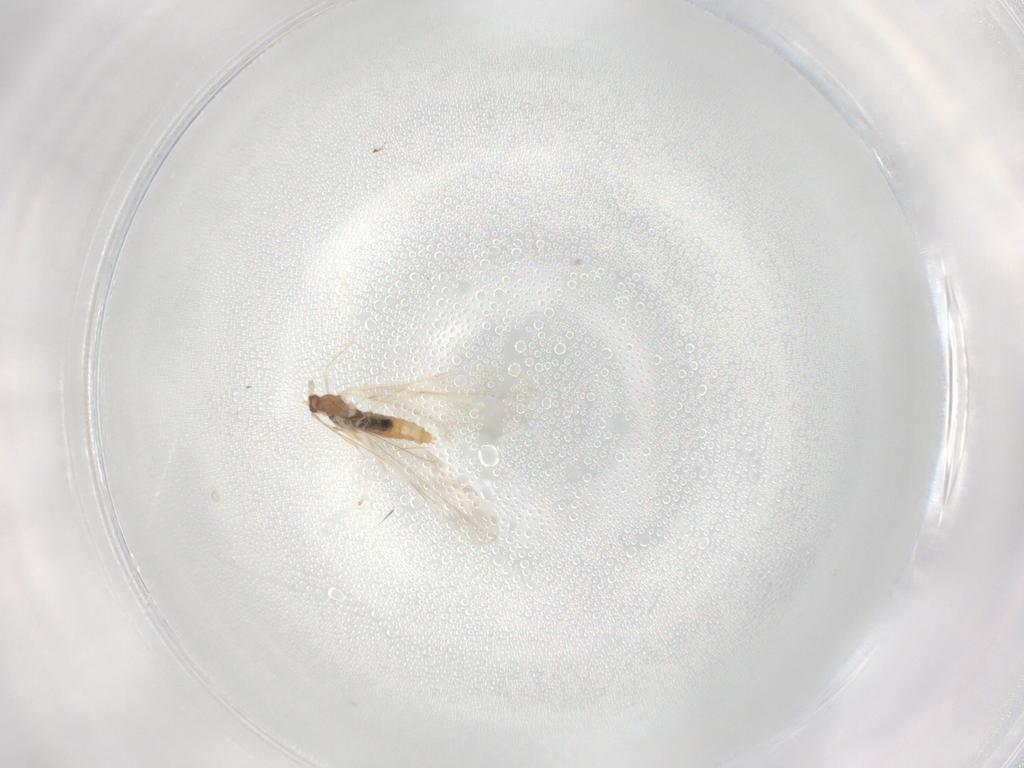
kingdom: Animalia
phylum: Arthropoda
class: Insecta
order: Diptera
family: Cecidomyiidae
